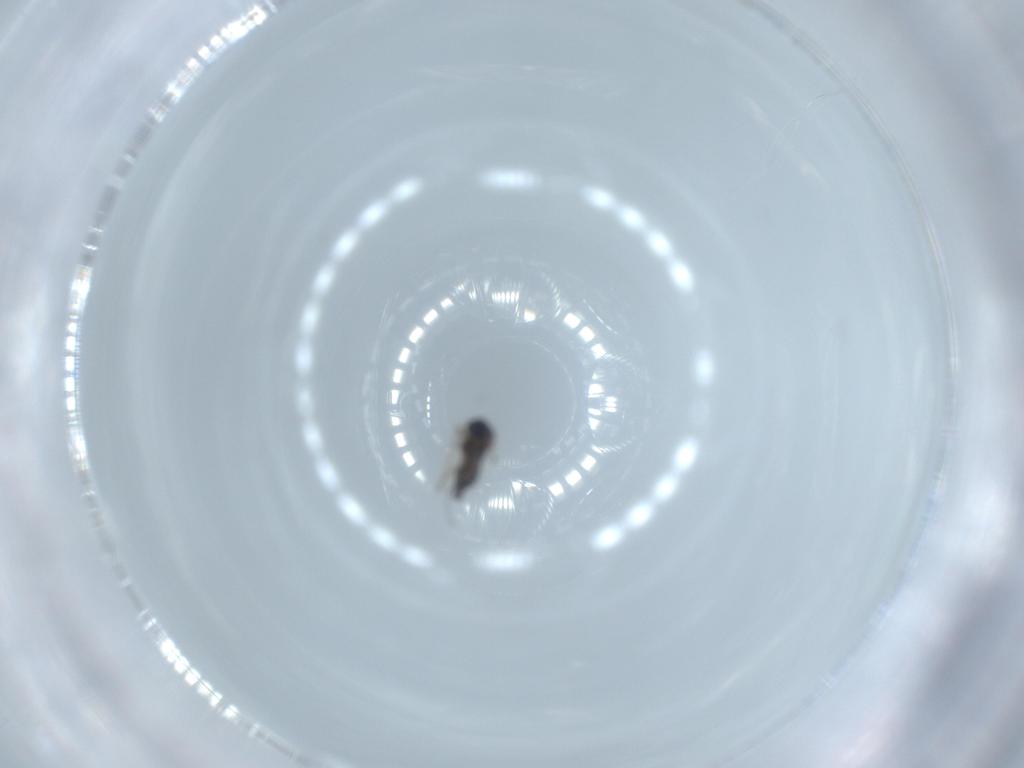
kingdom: Animalia
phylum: Arthropoda
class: Insecta
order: Diptera
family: Chironomidae
